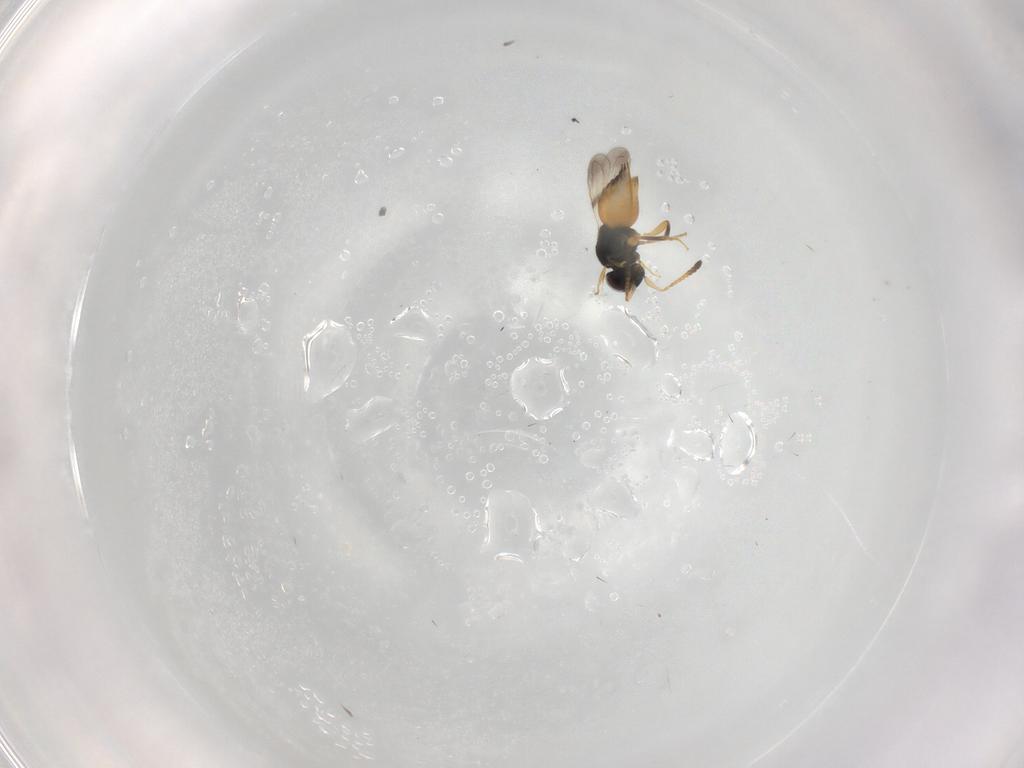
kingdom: Animalia
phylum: Arthropoda
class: Insecta
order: Hymenoptera
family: Ceraphronidae
